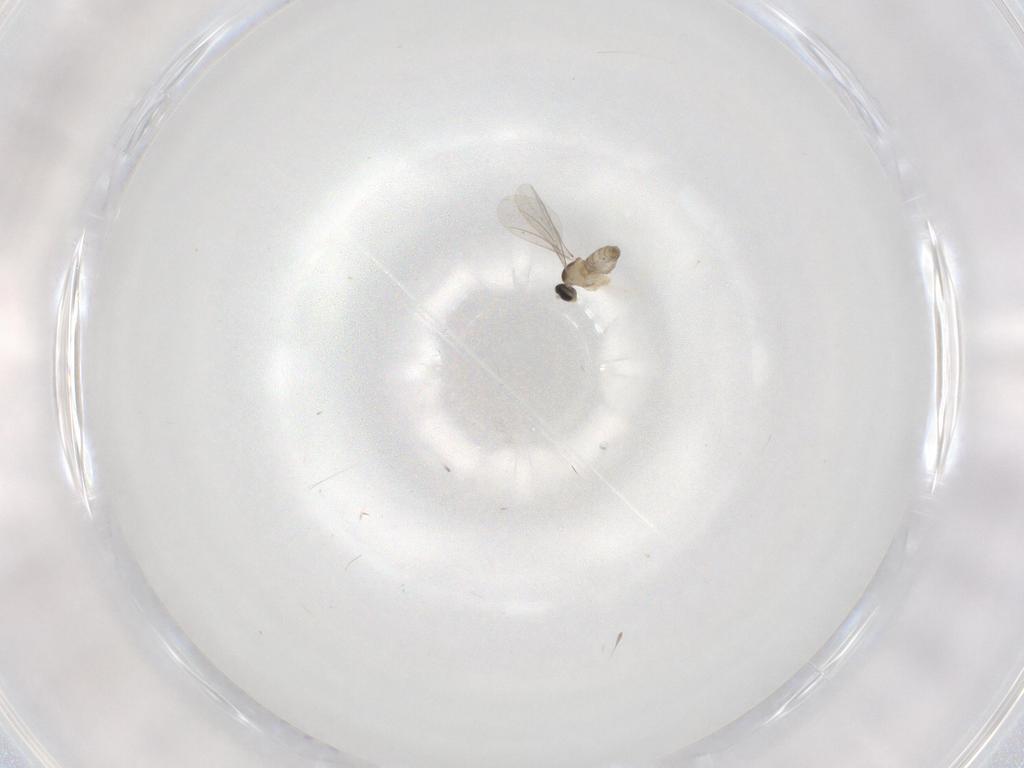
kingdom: Animalia
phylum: Arthropoda
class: Insecta
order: Diptera
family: Cecidomyiidae
